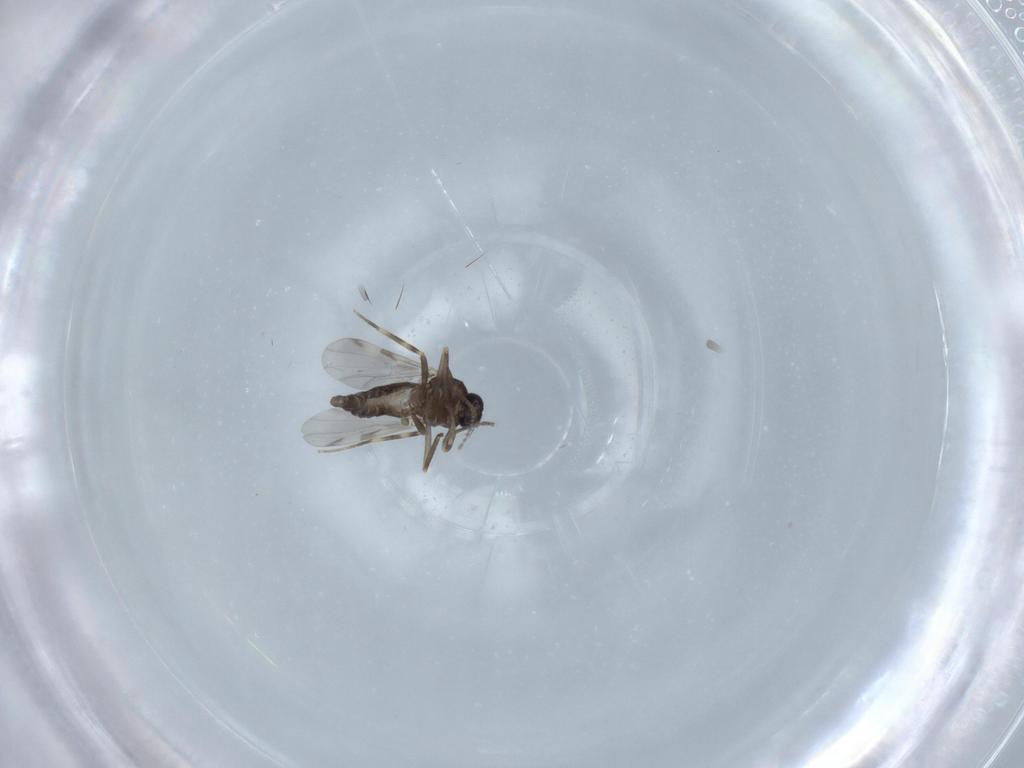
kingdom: Animalia
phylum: Arthropoda
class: Insecta
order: Diptera
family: Ceratopogonidae
